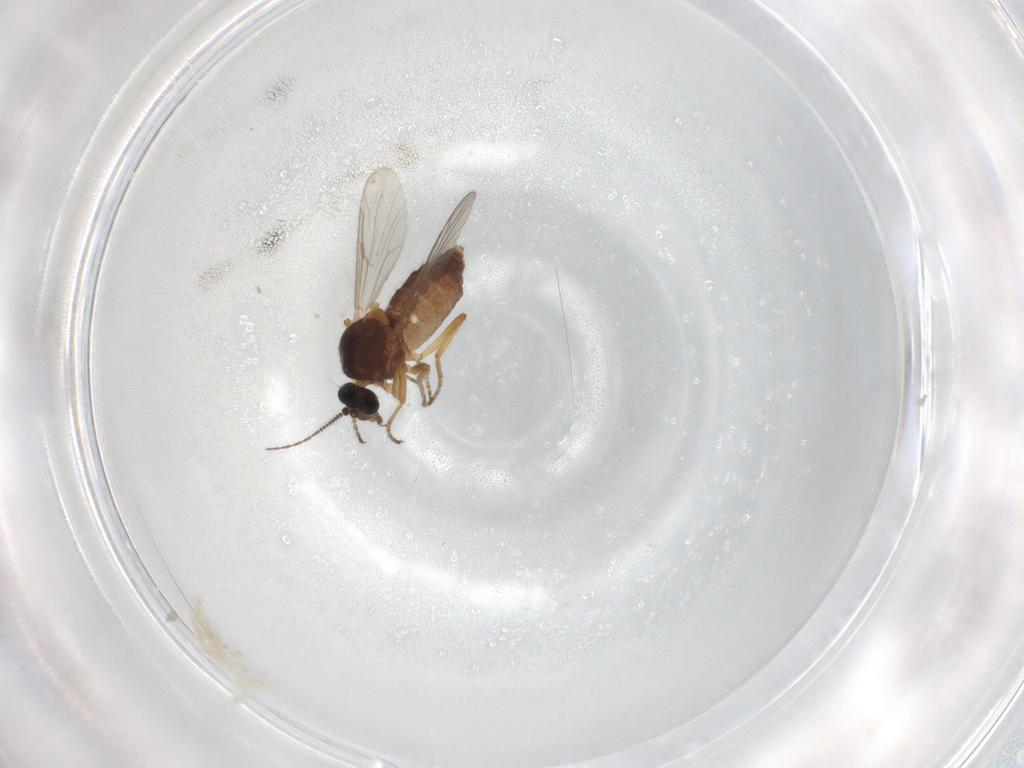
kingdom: Animalia
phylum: Arthropoda
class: Insecta
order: Diptera
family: Ceratopogonidae
